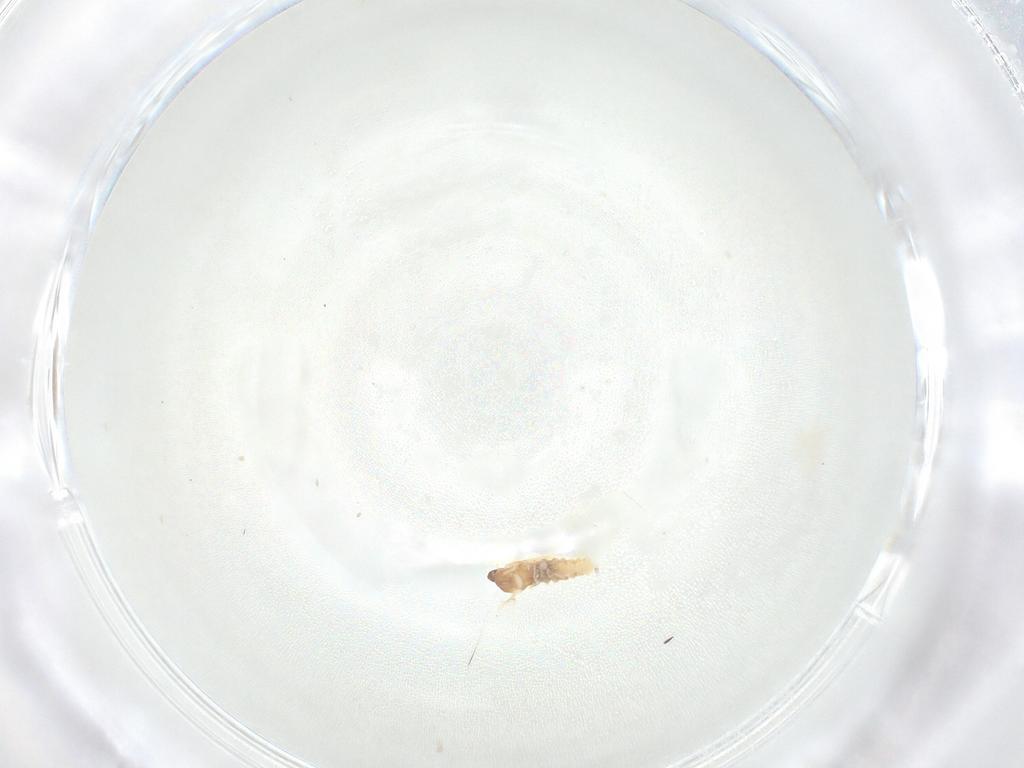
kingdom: Animalia
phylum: Arthropoda
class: Insecta
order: Diptera
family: Cecidomyiidae
